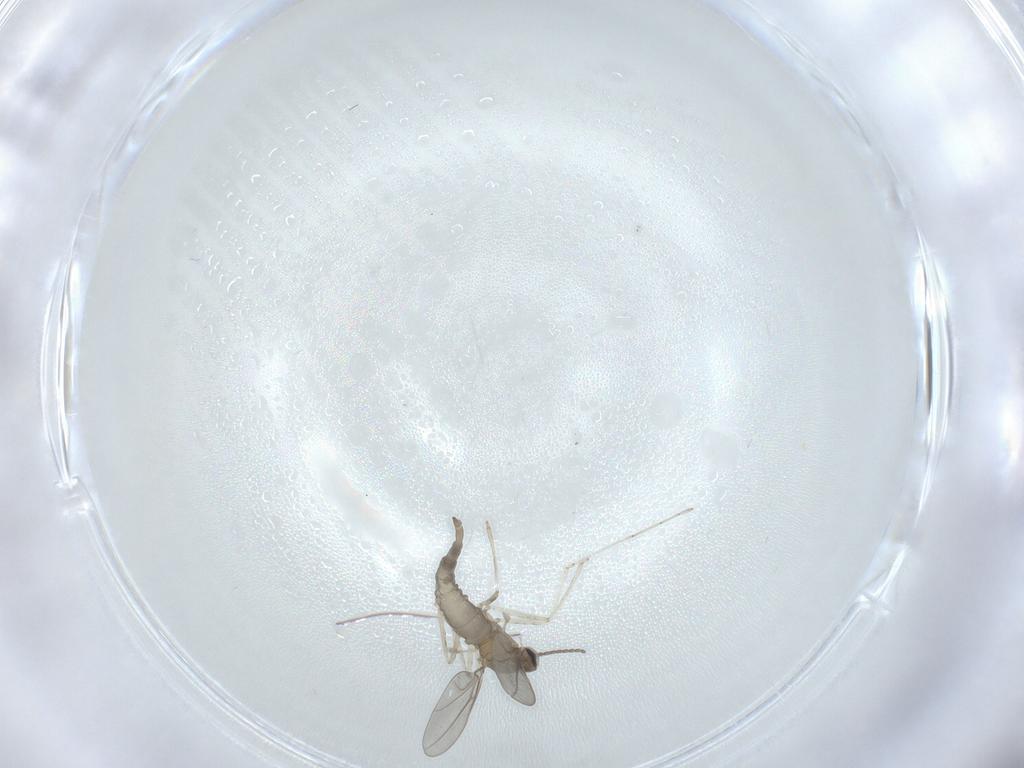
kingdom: Animalia
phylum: Arthropoda
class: Insecta
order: Diptera
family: Cecidomyiidae
